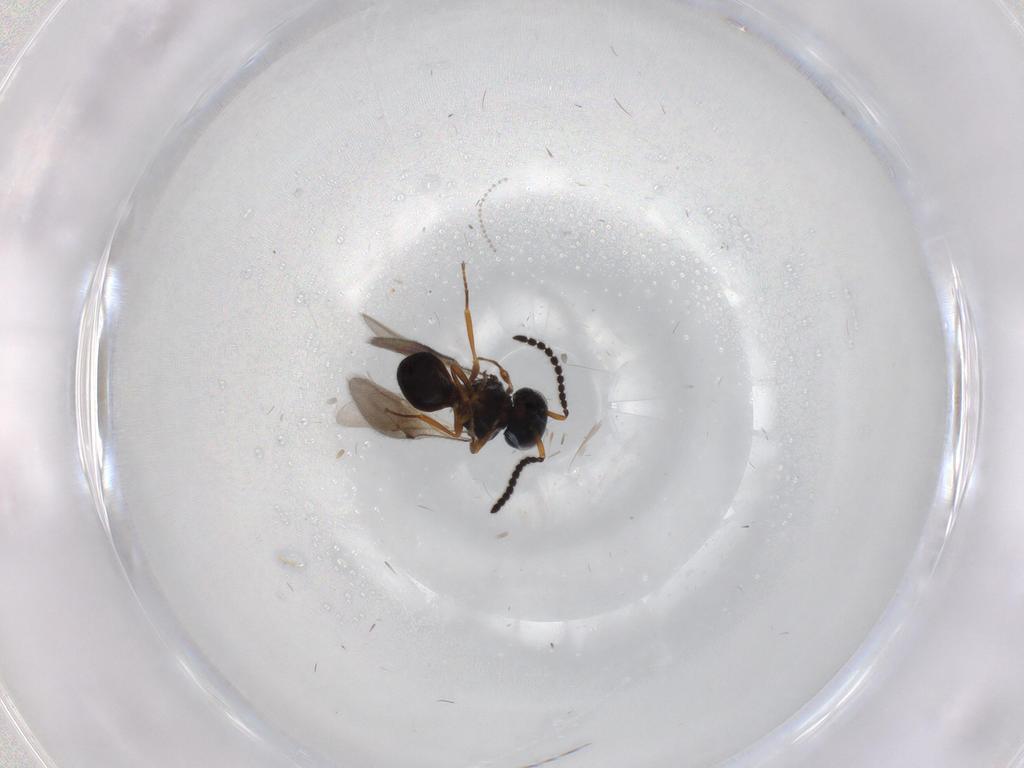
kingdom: Animalia
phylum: Arthropoda
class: Insecta
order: Hymenoptera
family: Scelionidae
